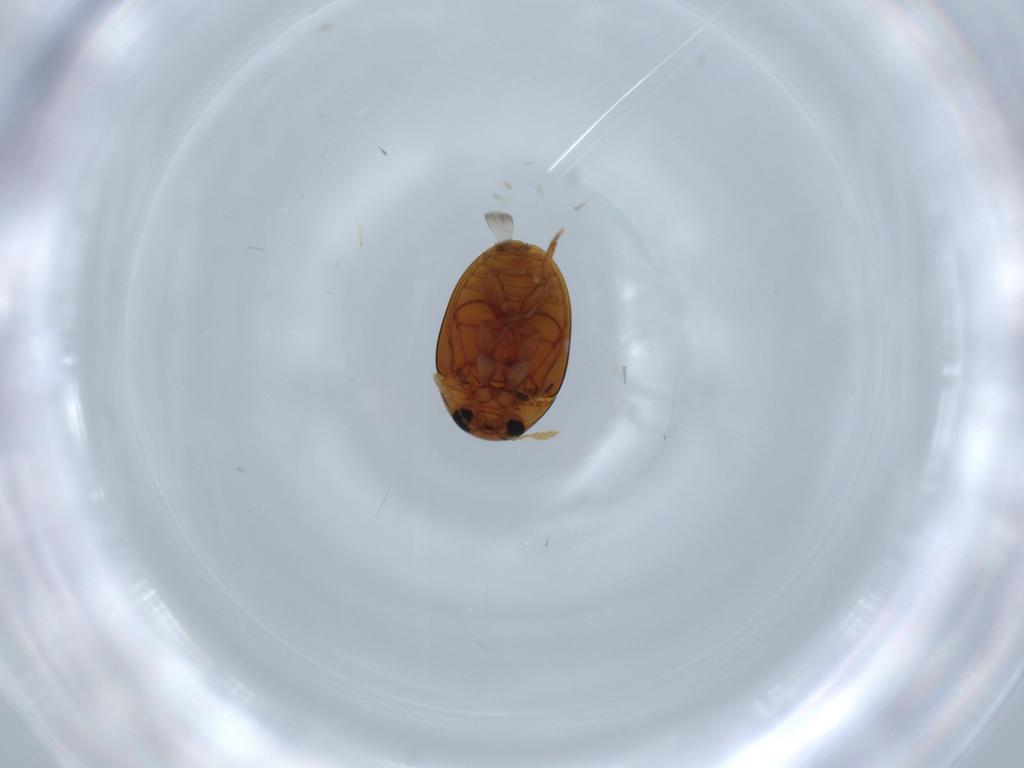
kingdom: Animalia
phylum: Arthropoda
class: Insecta
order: Coleoptera
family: Phalacridae
